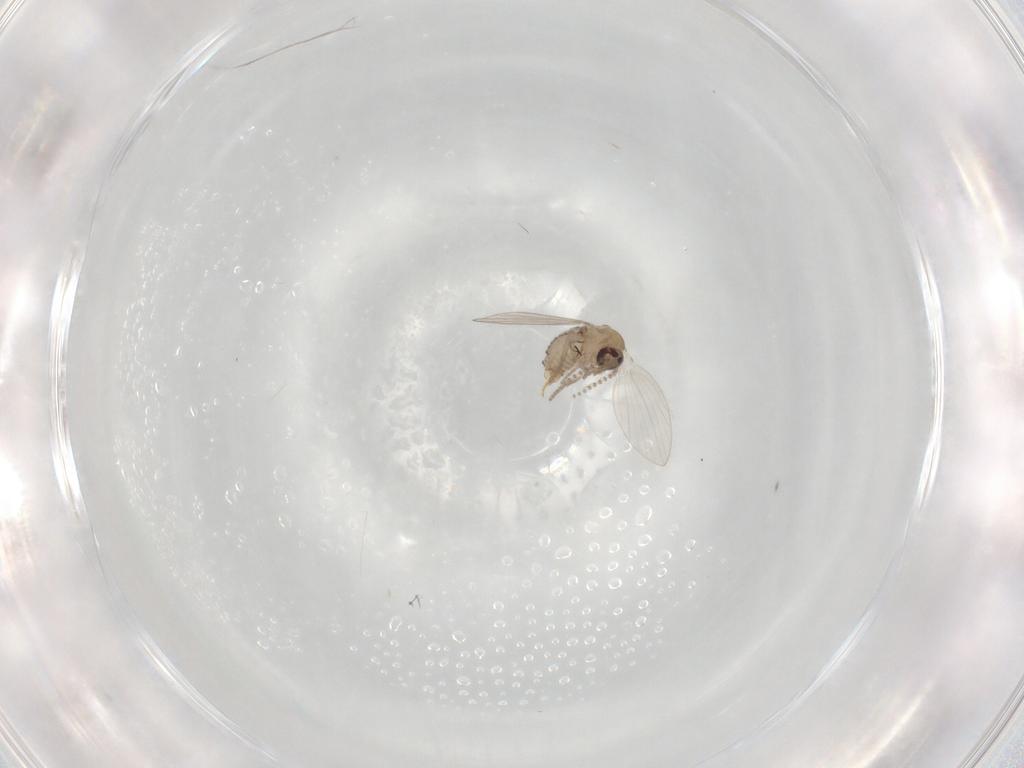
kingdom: Animalia
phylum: Arthropoda
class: Insecta
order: Diptera
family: Psychodidae
